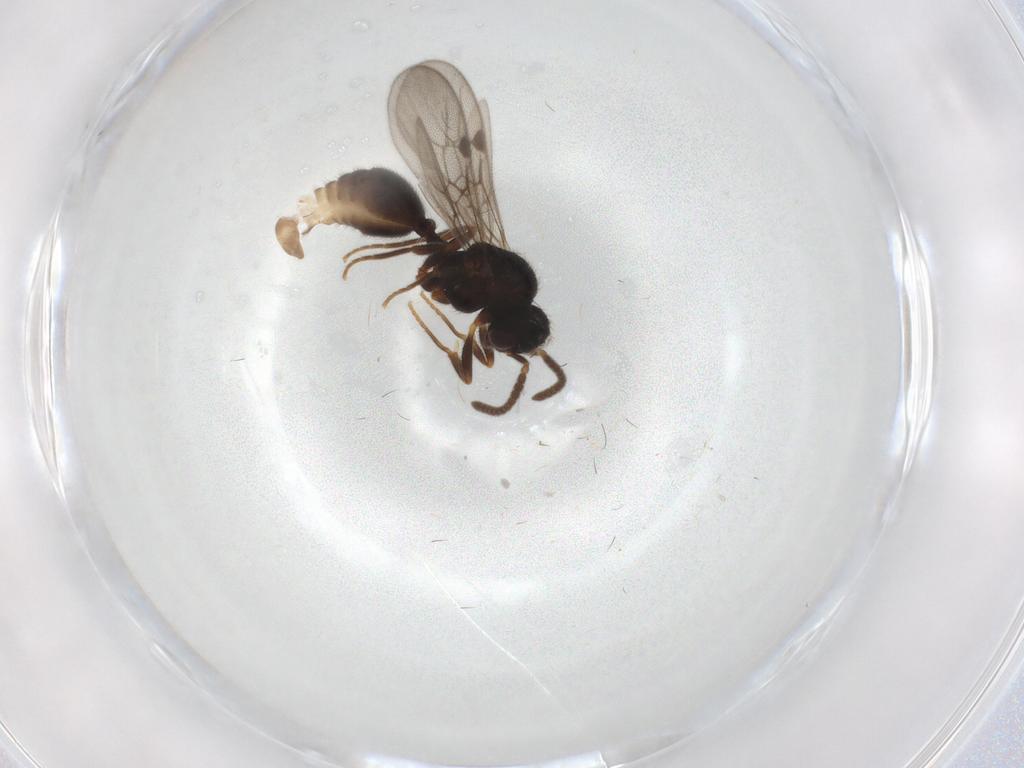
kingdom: Animalia
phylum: Arthropoda
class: Insecta
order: Hymenoptera
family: Formicidae
